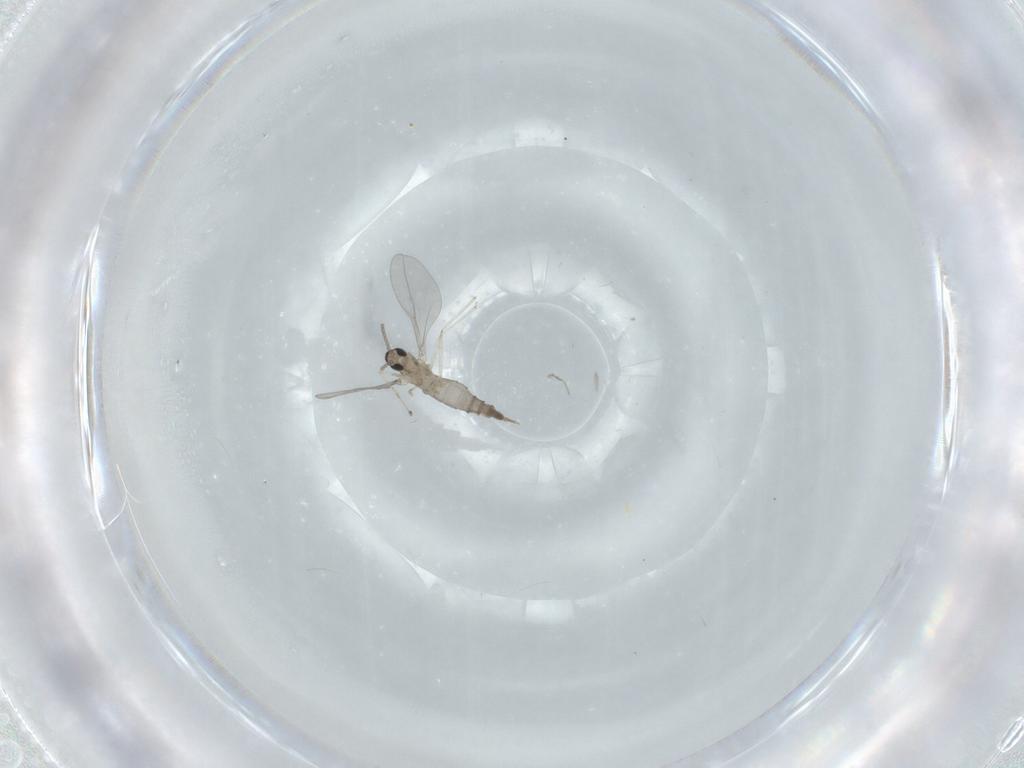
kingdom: Animalia
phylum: Arthropoda
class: Insecta
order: Diptera
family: Cecidomyiidae
